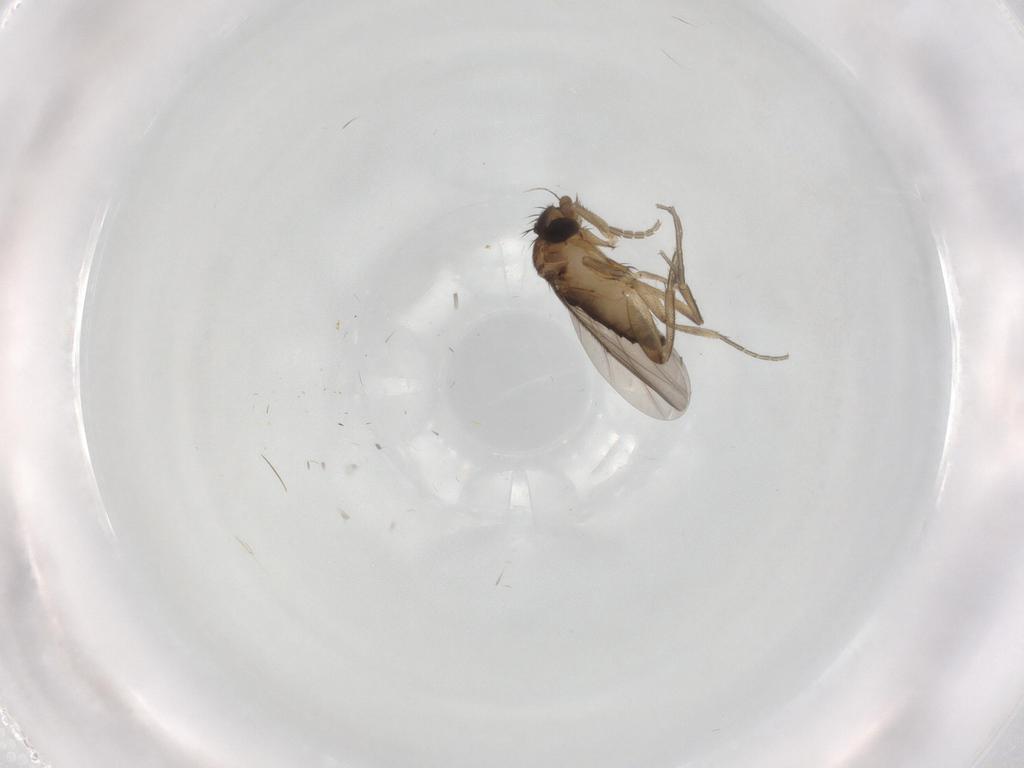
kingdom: Animalia
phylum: Arthropoda
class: Insecta
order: Diptera
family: Phoridae
